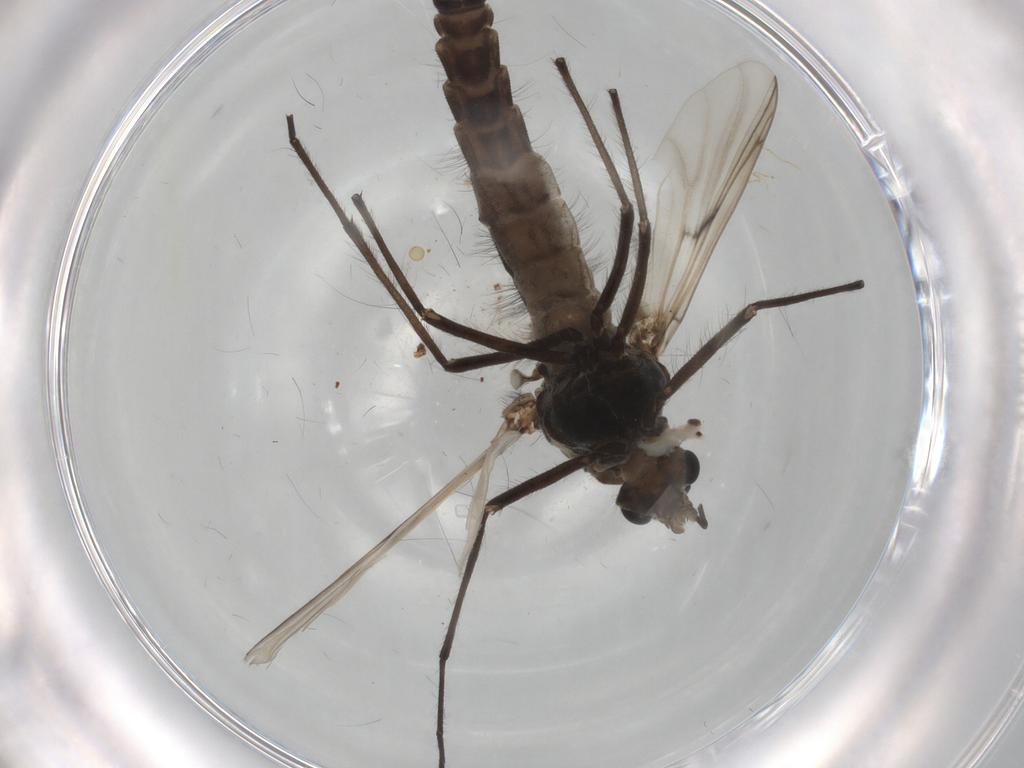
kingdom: Animalia
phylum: Arthropoda
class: Insecta
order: Diptera
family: Chironomidae
